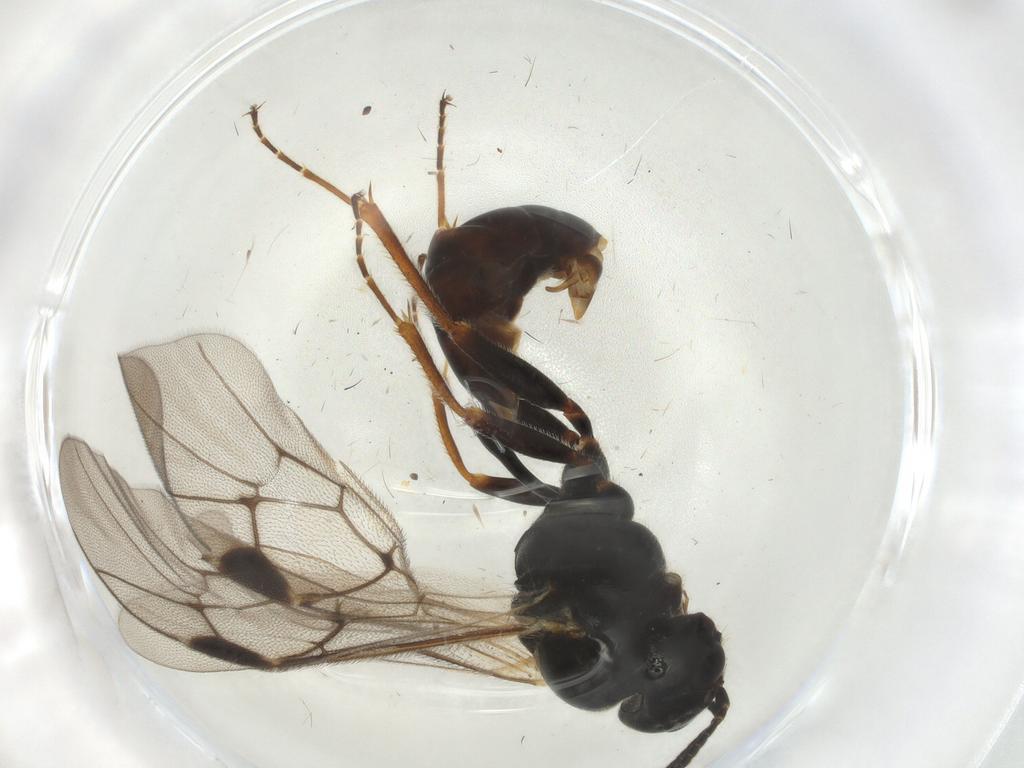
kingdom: Animalia
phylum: Arthropoda
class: Insecta
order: Hymenoptera
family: Ichneumonidae
